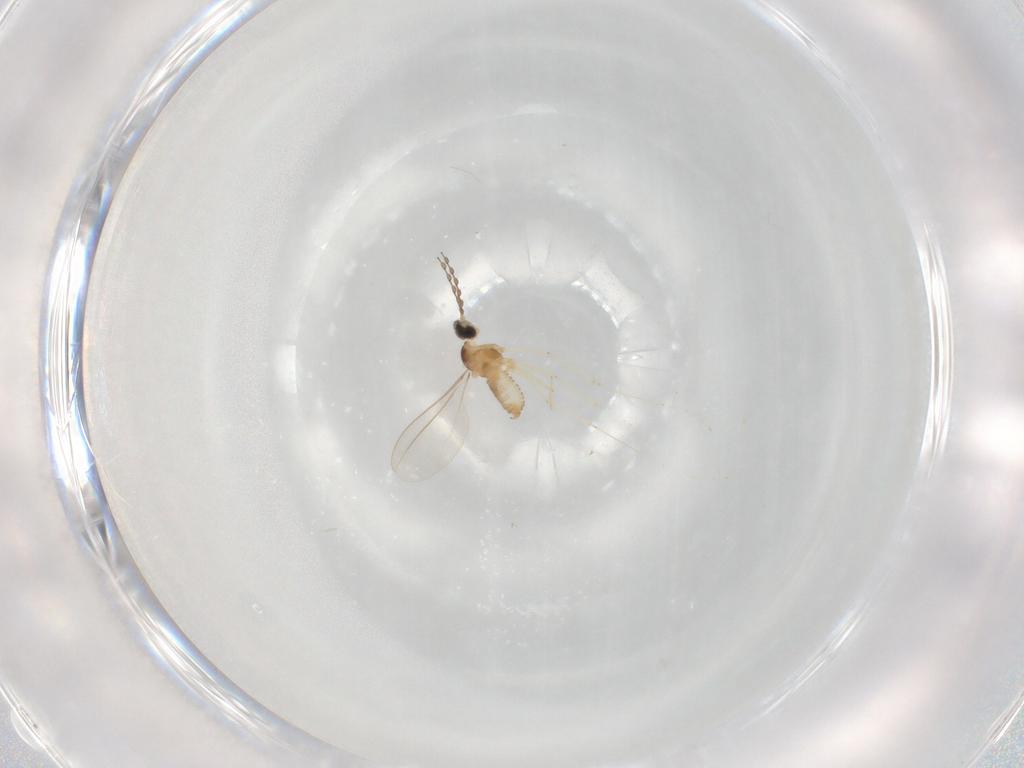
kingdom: Animalia
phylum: Arthropoda
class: Insecta
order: Diptera
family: Cecidomyiidae
